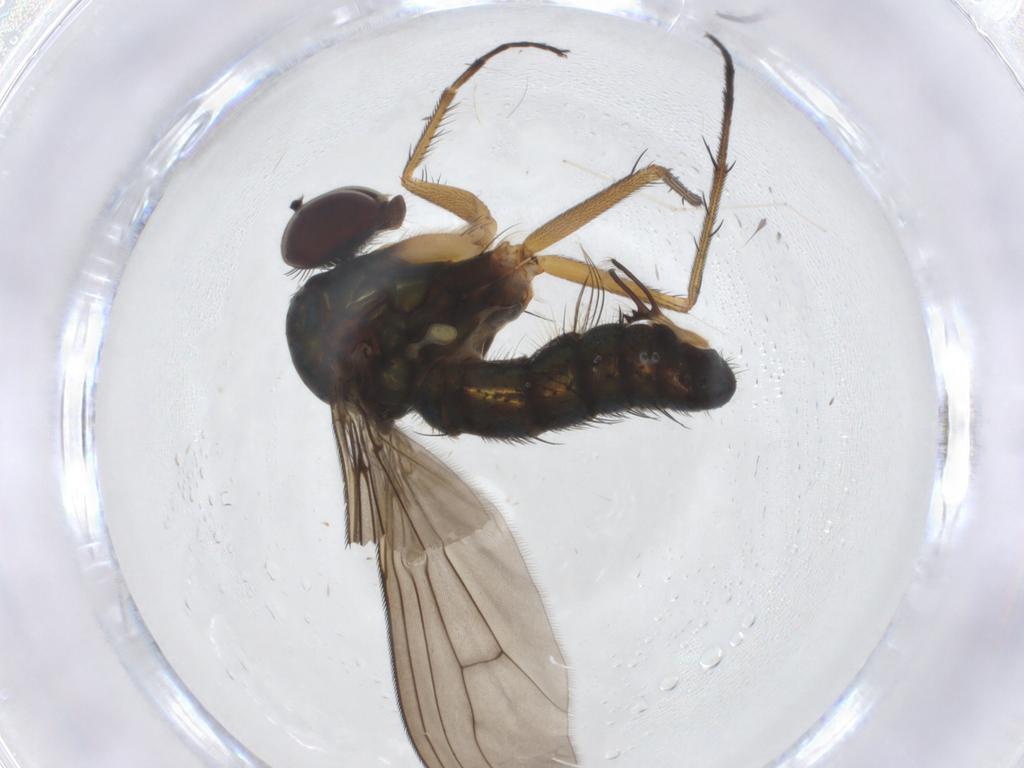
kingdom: Animalia
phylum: Arthropoda
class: Insecta
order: Diptera
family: Dolichopodidae
